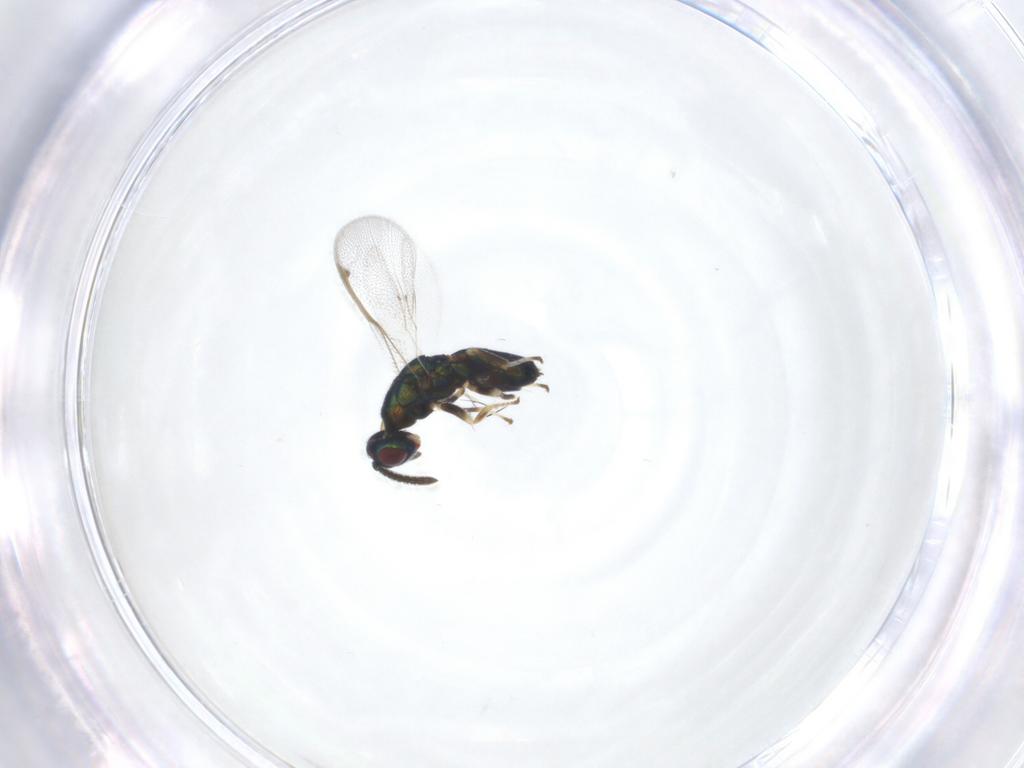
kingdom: Animalia
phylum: Arthropoda
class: Insecta
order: Hymenoptera
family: Torymidae
